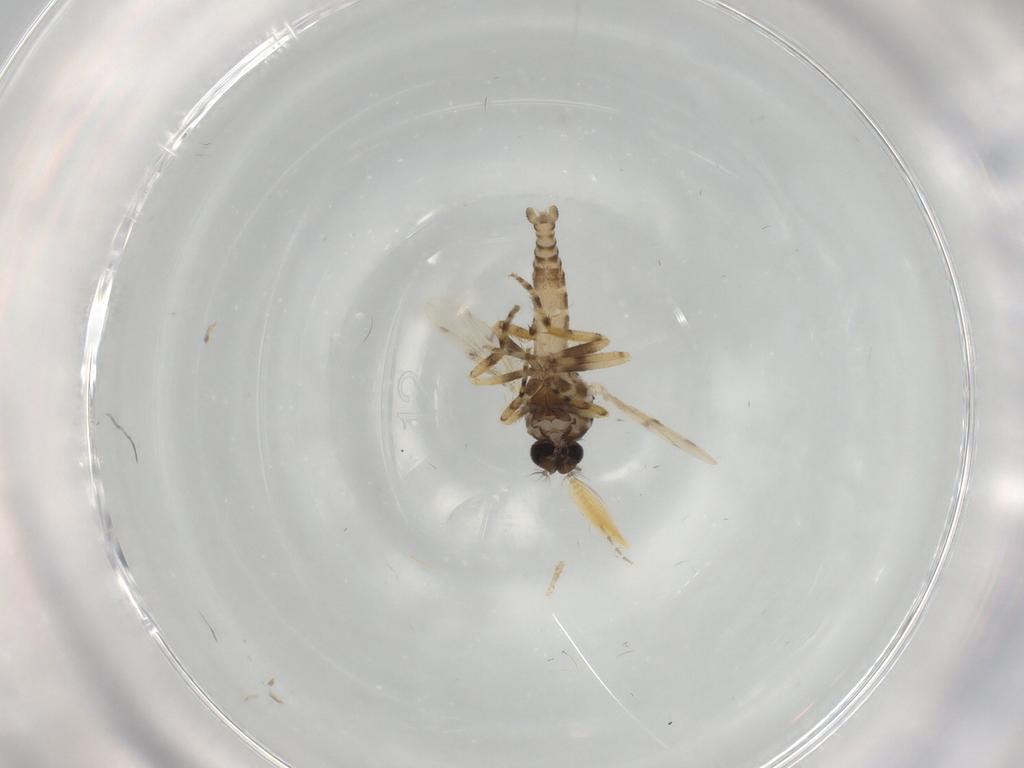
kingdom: Animalia
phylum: Arthropoda
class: Insecta
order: Diptera
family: Ceratopogonidae
